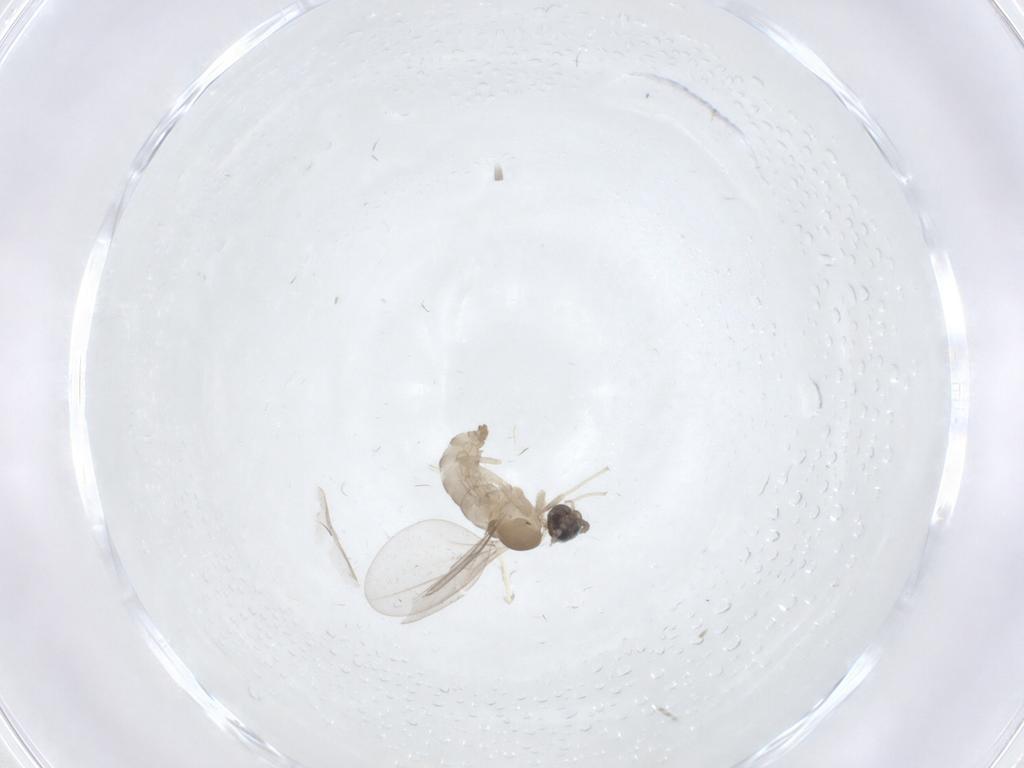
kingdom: Animalia
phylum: Arthropoda
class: Insecta
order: Diptera
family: Cecidomyiidae
